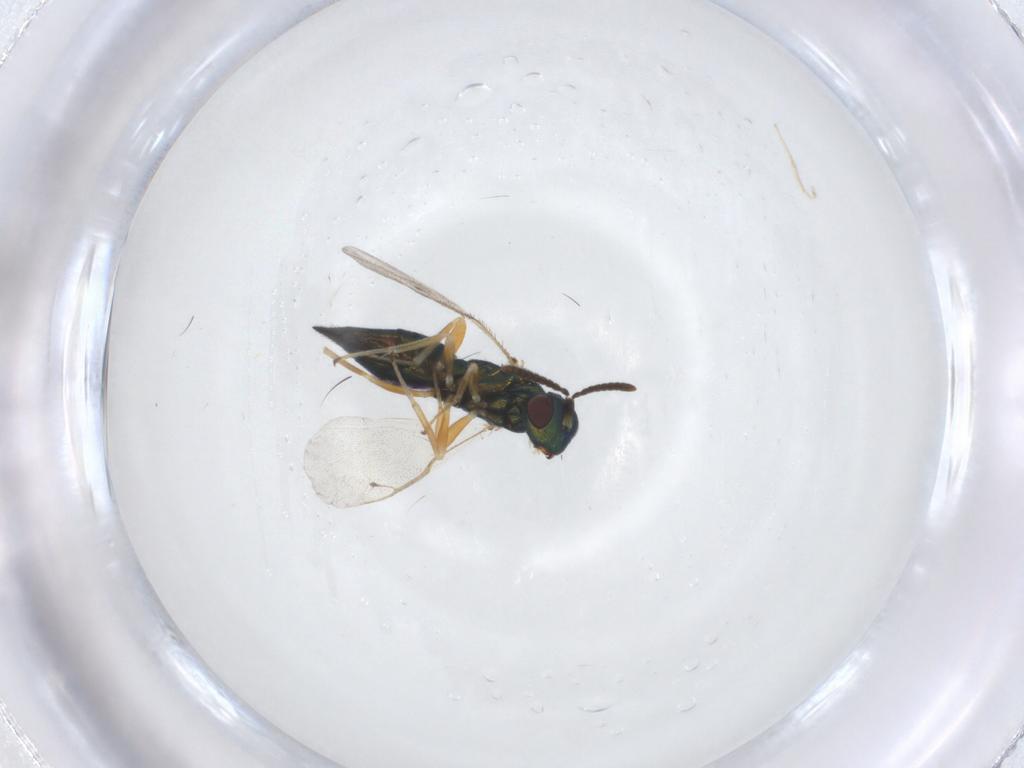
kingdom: Animalia
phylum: Arthropoda
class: Insecta
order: Hymenoptera
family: Pteromalidae
